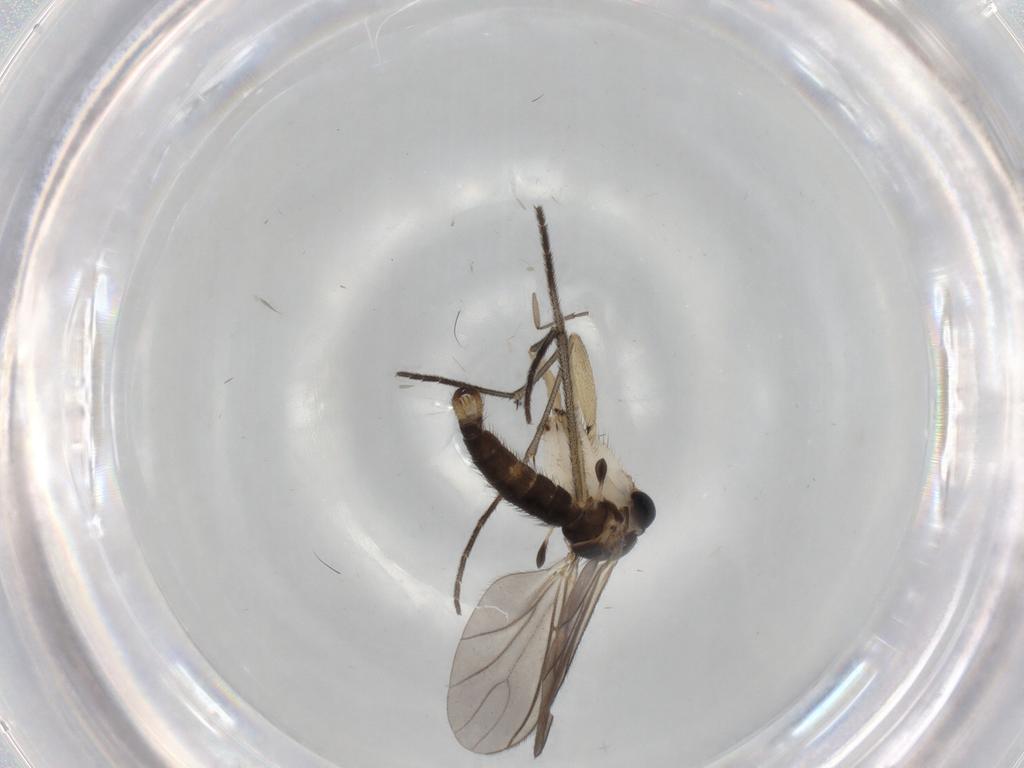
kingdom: Animalia
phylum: Arthropoda
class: Insecta
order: Diptera
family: Sciaridae
